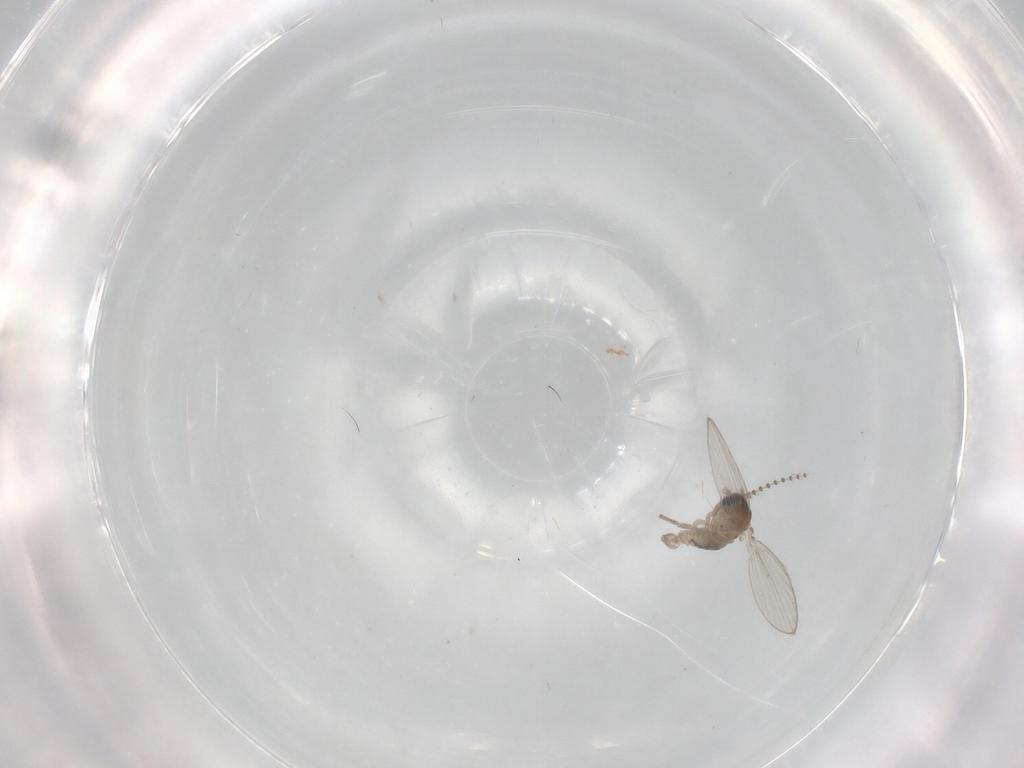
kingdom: Animalia
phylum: Arthropoda
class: Insecta
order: Diptera
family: Psychodidae
